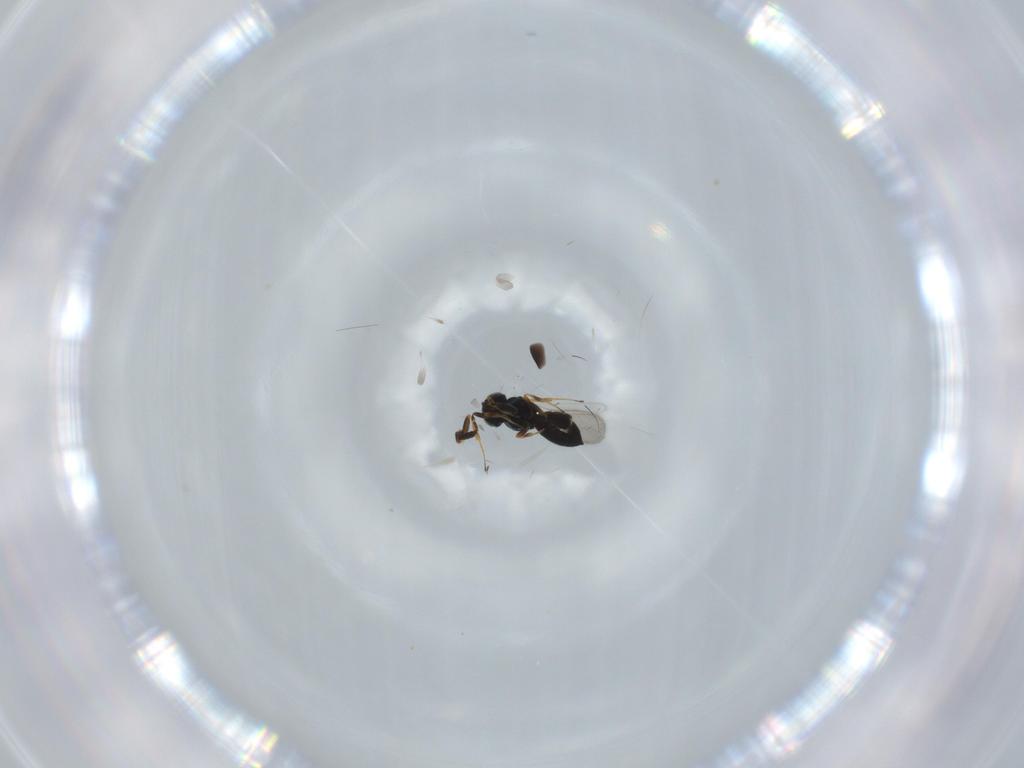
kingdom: Animalia
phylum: Arthropoda
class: Insecta
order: Hymenoptera
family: Scelionidae
